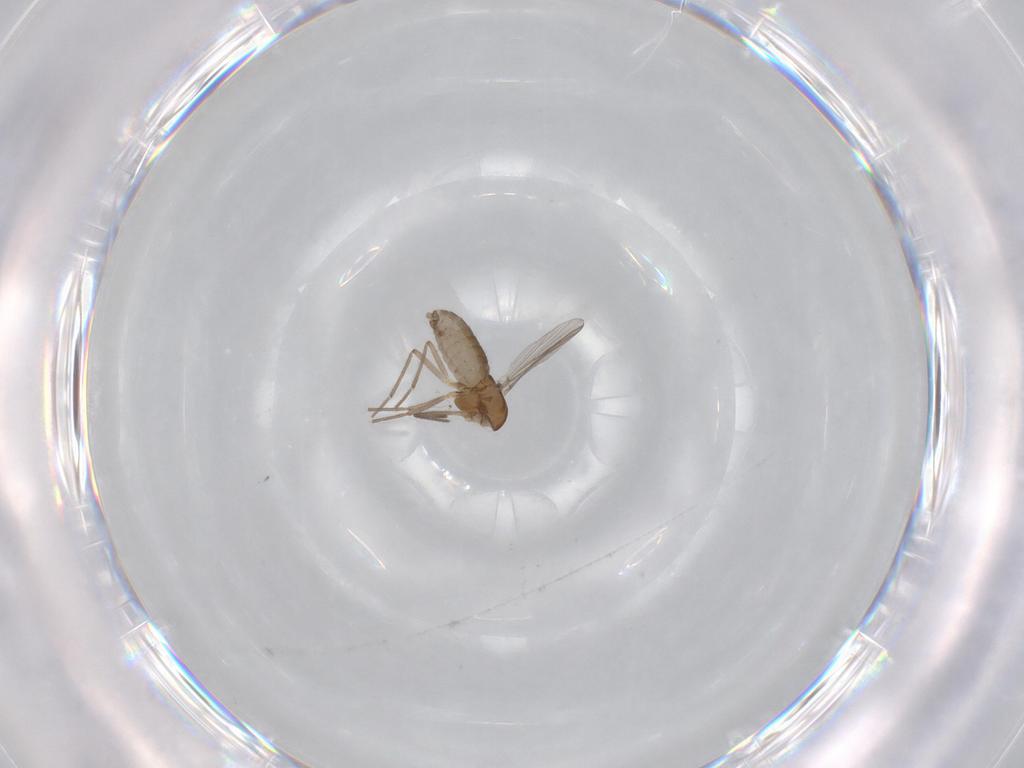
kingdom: Animalia
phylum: Arthropoda
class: Insecta
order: Diptera
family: Chironomidae
